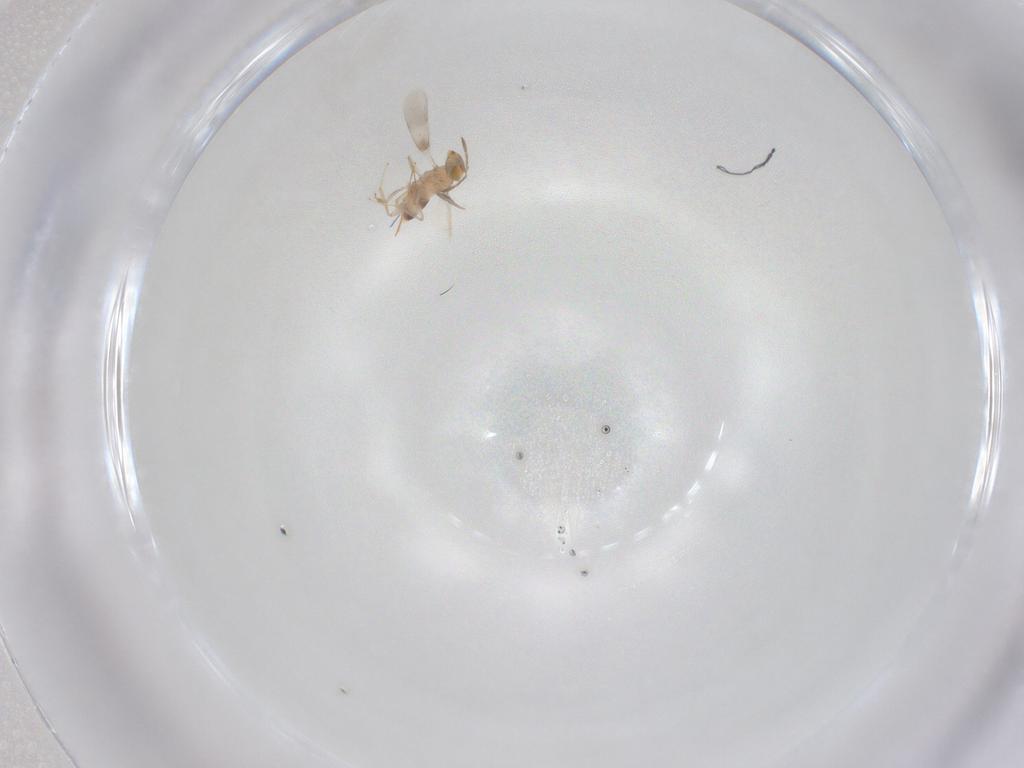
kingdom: Animalia
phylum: Arthropoda
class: Insecta
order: Hymenoptera
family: Aphelinidae
